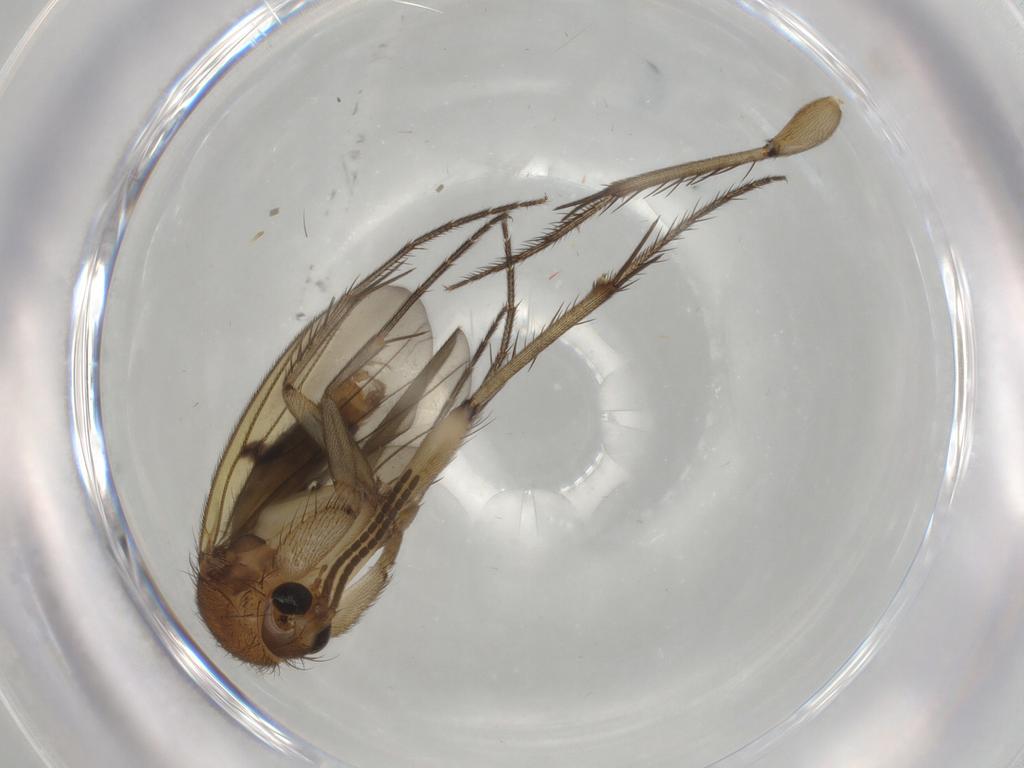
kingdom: Animalia
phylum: Arthropoda
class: Insecta
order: Diptera
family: Mycetophilidae
